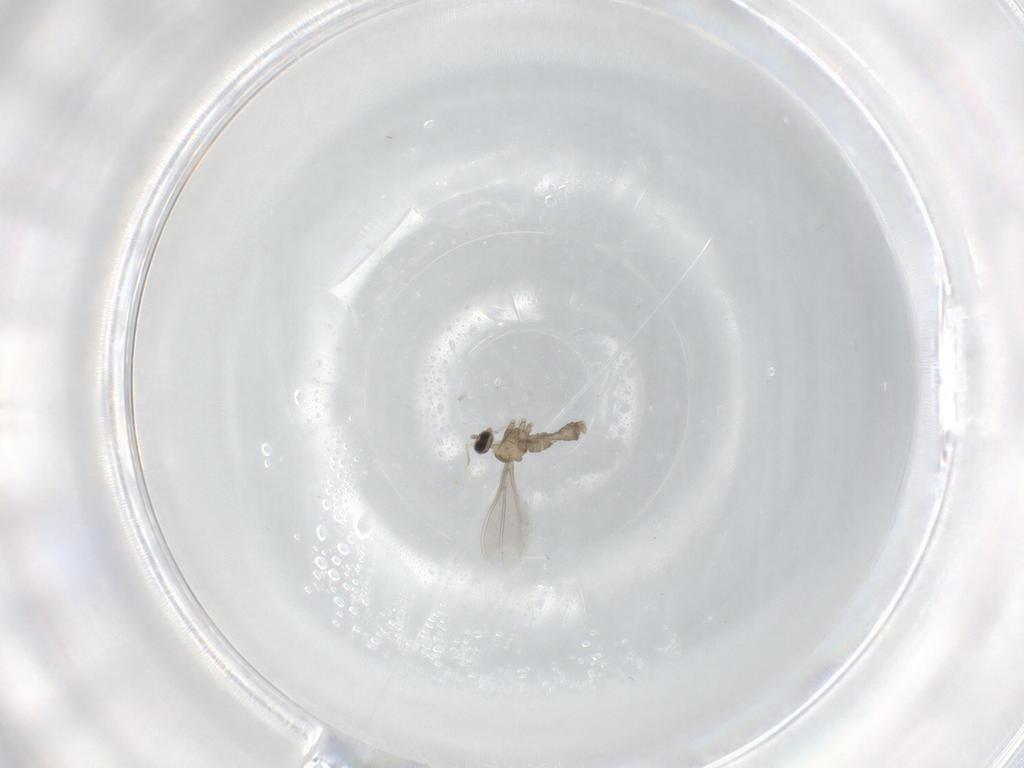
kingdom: Animalia
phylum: Arthropoda
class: Insecta
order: Diptera
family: Cecidomyiidae
